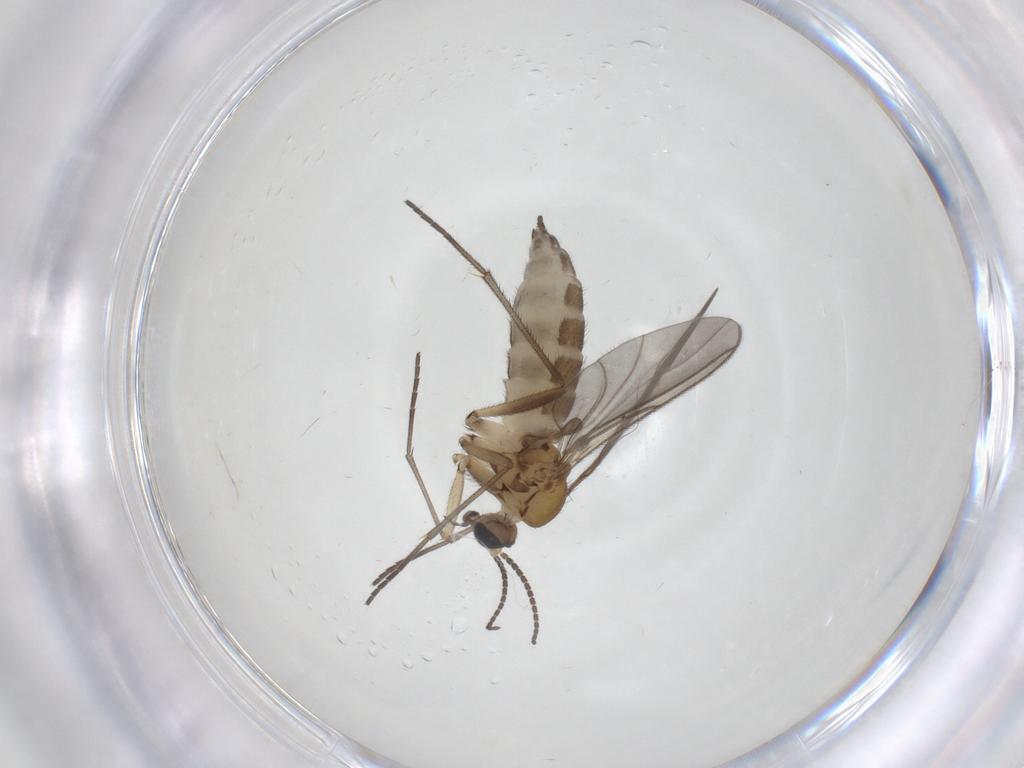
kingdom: Animalia
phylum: Arthropoda
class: Insecta
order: Diptera
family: Sciaridae
